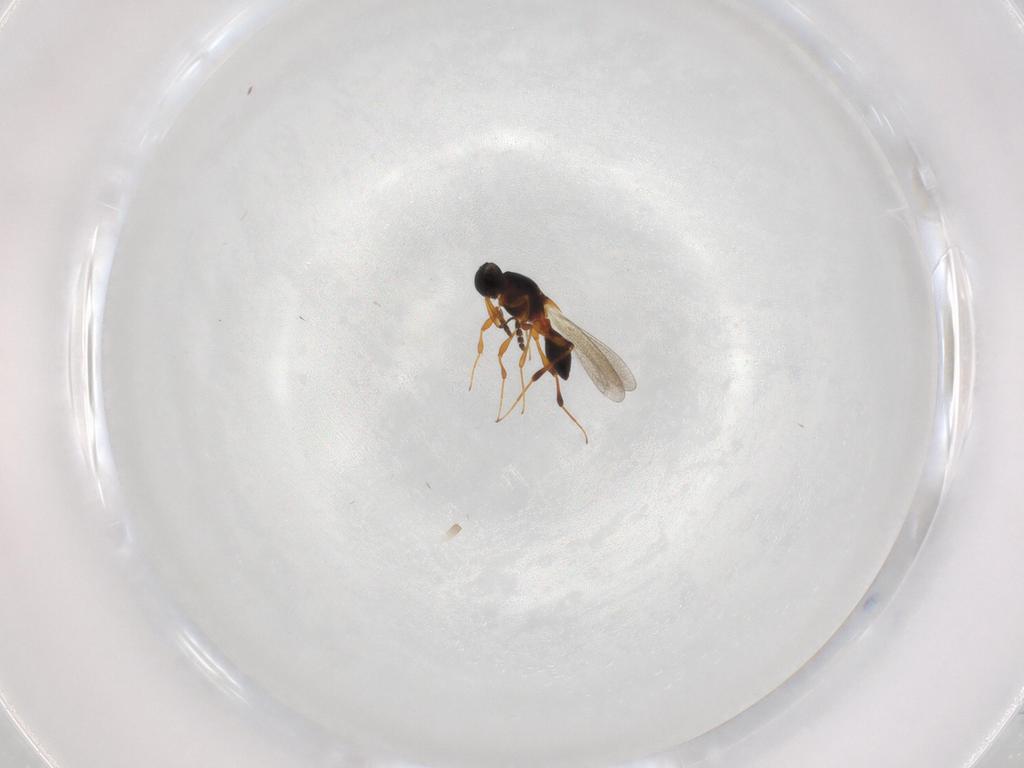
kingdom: Animalia
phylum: Arthropoda
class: Insecta
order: Hymenoptera
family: Platygastridae
